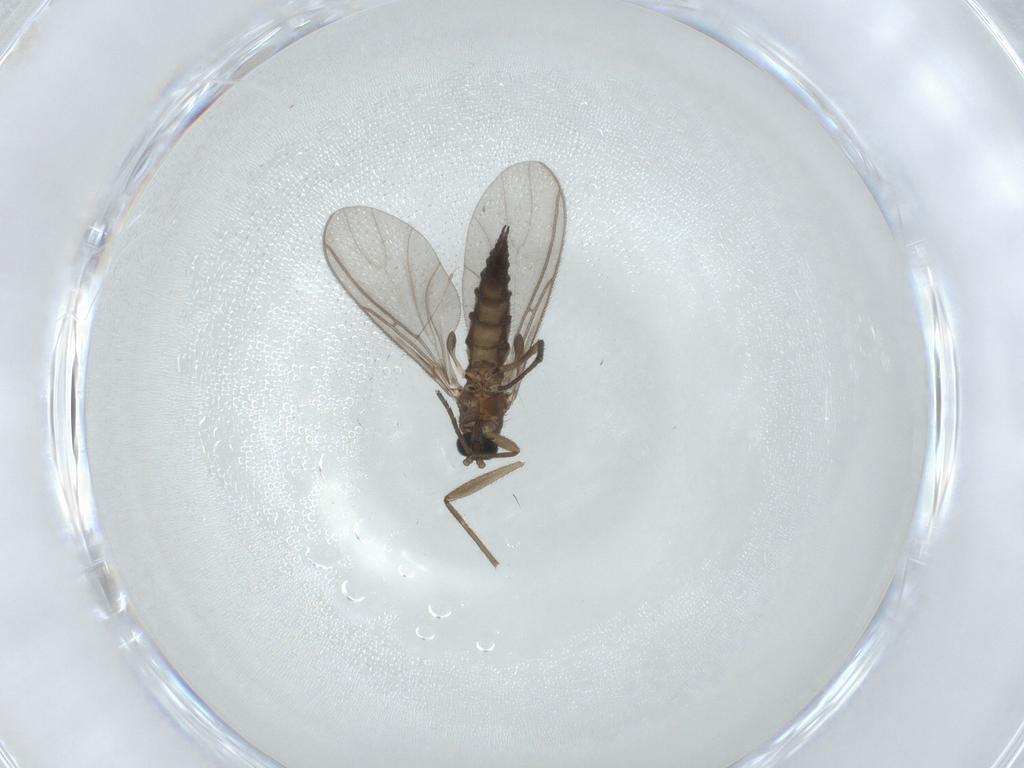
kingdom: Animalia
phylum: Arthropoda
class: Insecta
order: Diptera
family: Sciaridae
